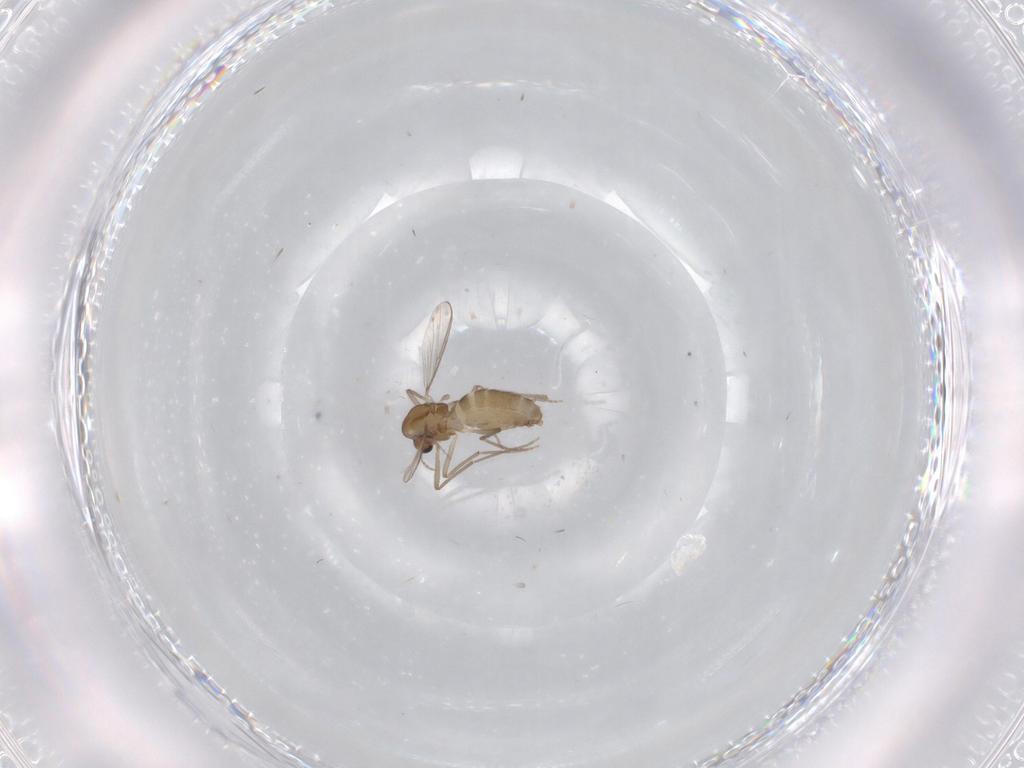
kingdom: Animalia
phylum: Arthropoda
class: Insecta
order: Diptera
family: Chironomidae
